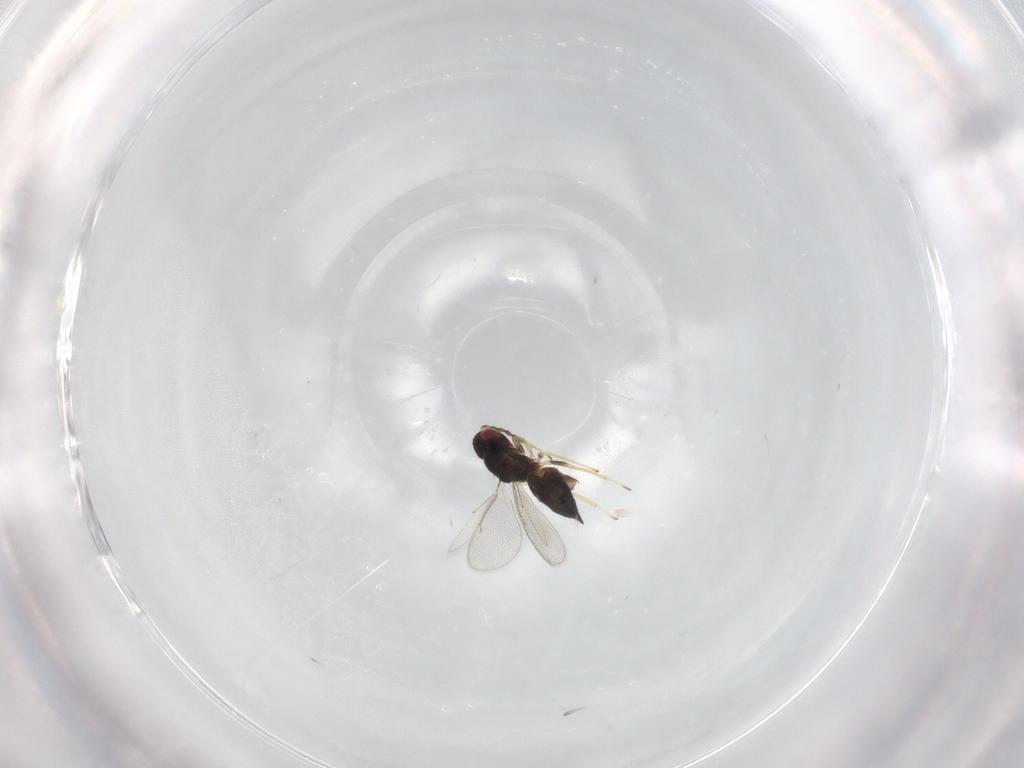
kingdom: Animalia
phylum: Arthropoda
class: Insecta
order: Hymenoptera
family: Eulophidae
